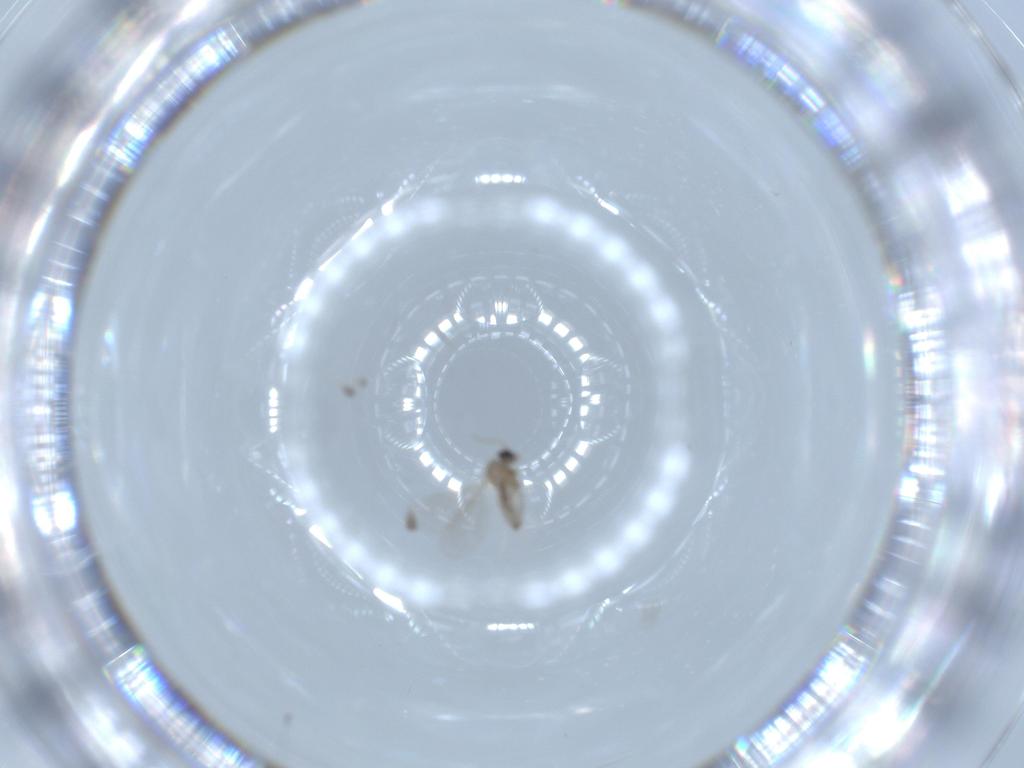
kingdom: Animalia
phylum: Arthropoda
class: Insecta
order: Diptera
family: Cecidomyiidae
